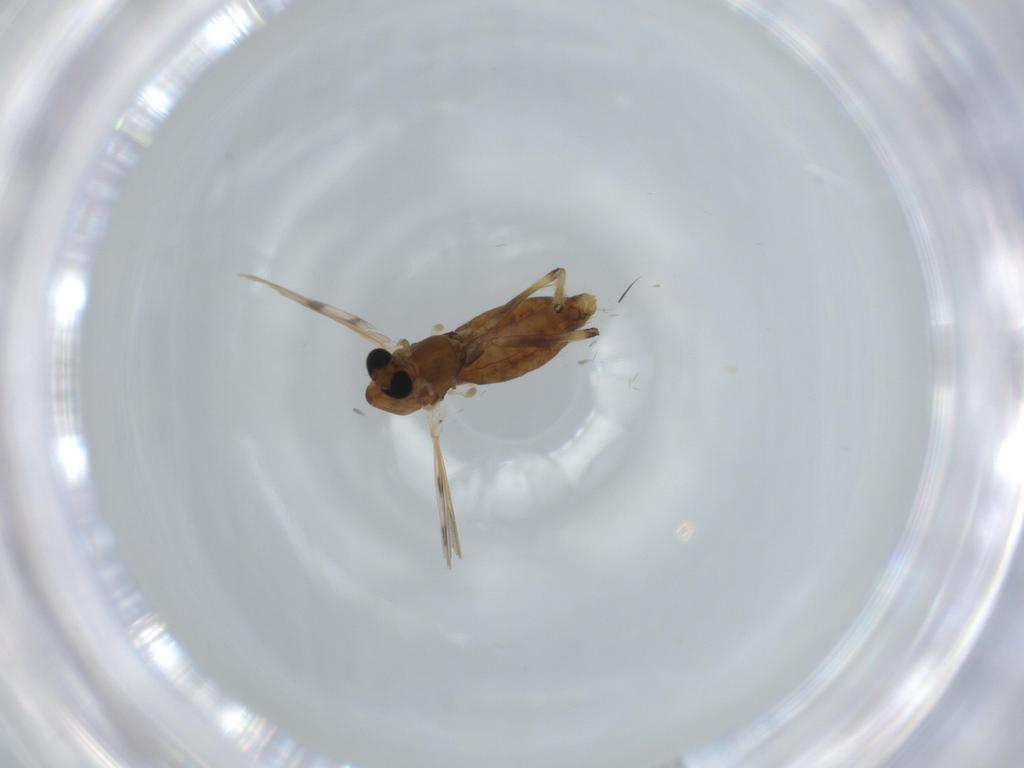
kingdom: Animalia
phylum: Arthropoda
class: Insecta
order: Diptera
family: Chironomidae
